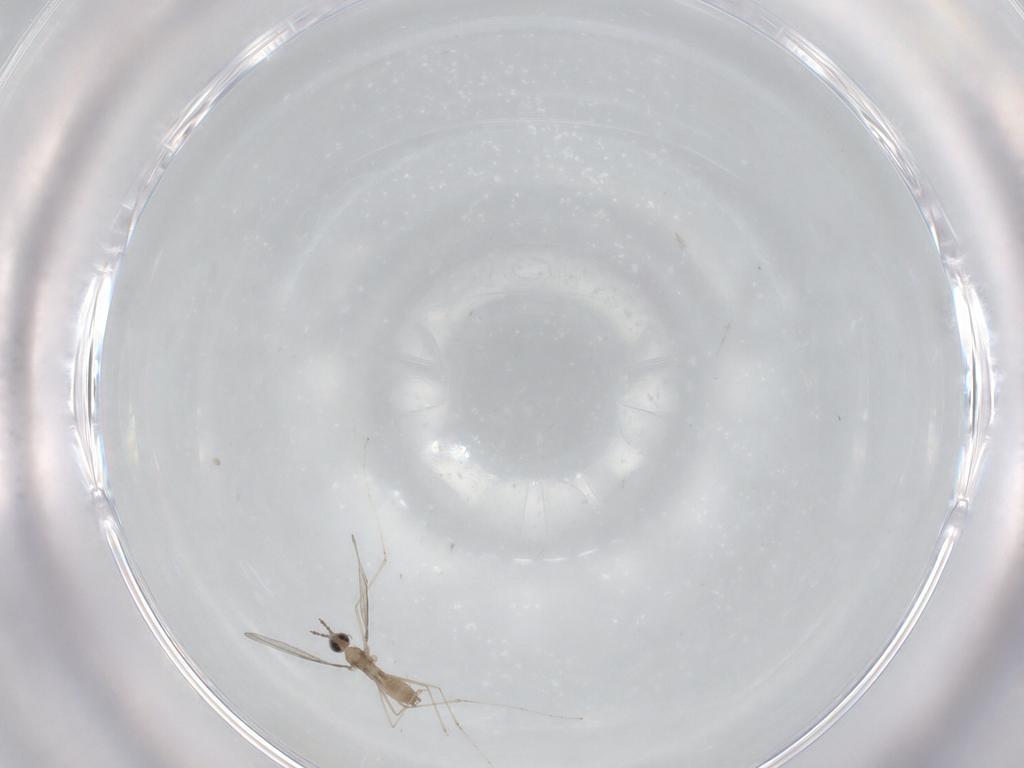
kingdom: Animalia
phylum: Arthropoda
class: Insecta
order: Diptera
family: Cecidomyiidae
